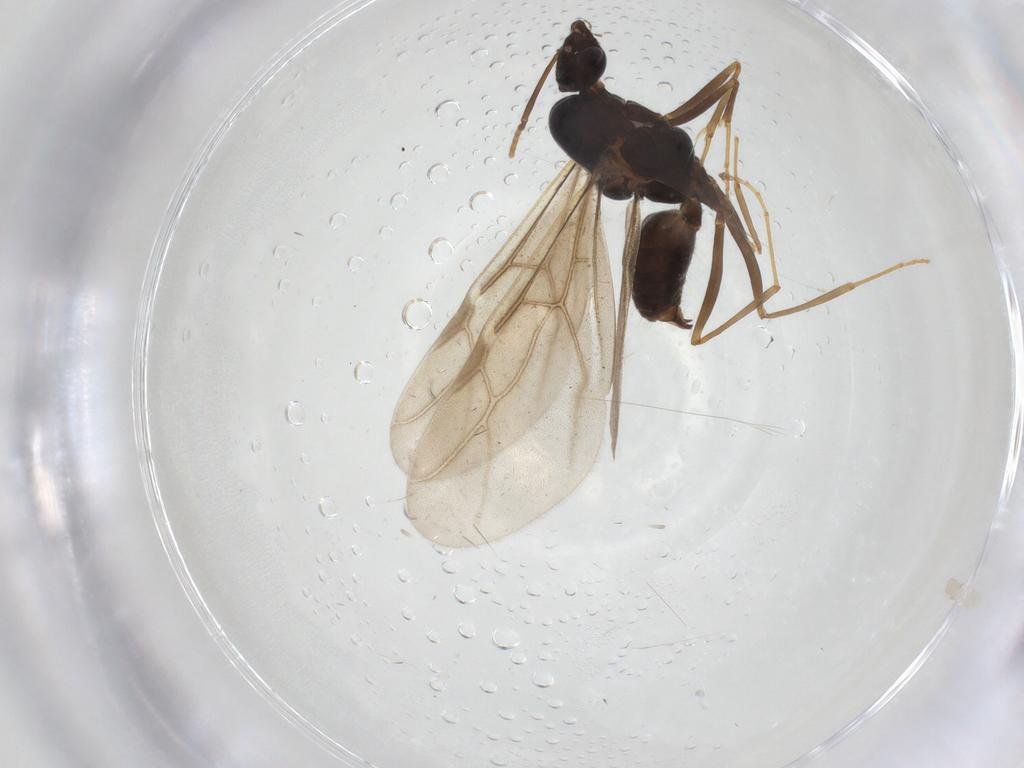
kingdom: Animalia
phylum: Arthropoda
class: Insecta
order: Hymenoptera
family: Formicidae
